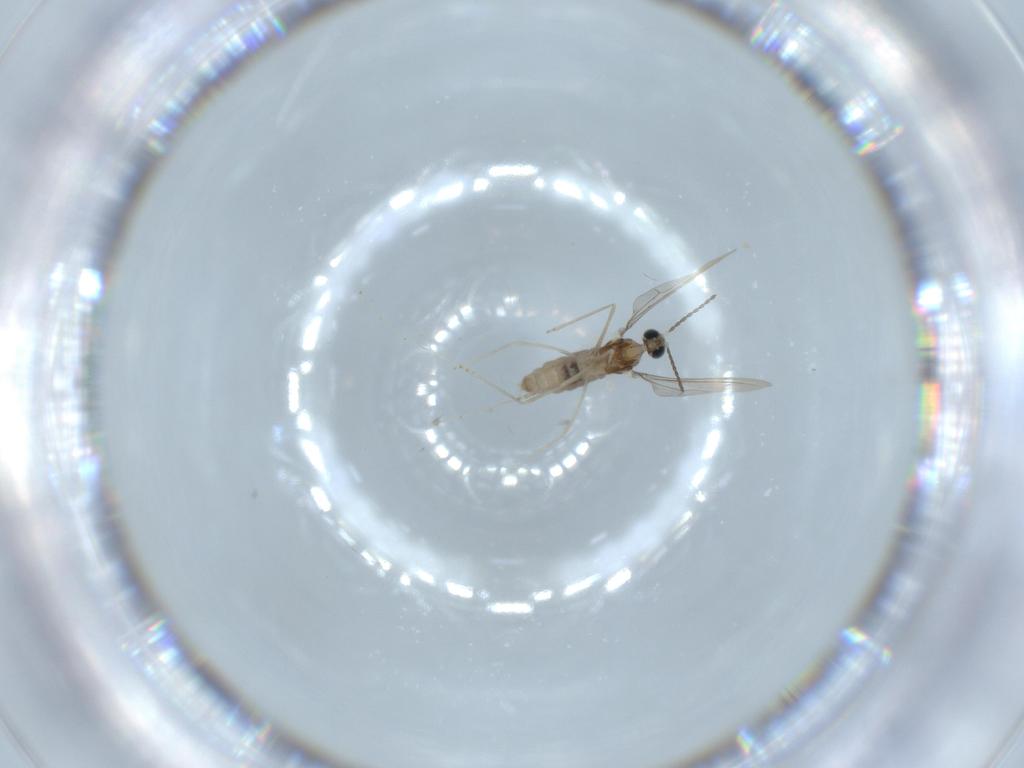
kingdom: Animalia
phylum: Arthropoda
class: Insecta
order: Diptera
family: Cecidomyiidae
